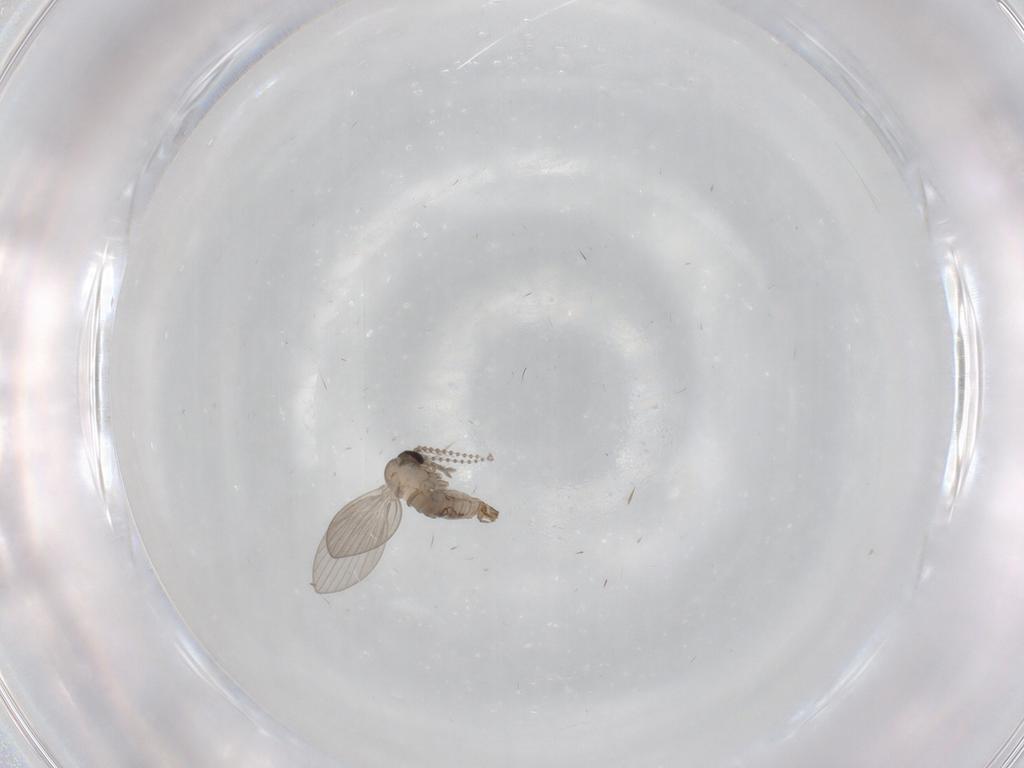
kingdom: Animalia
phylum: Arthropoda
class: Insecta
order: Diptera
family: Psychodidae
